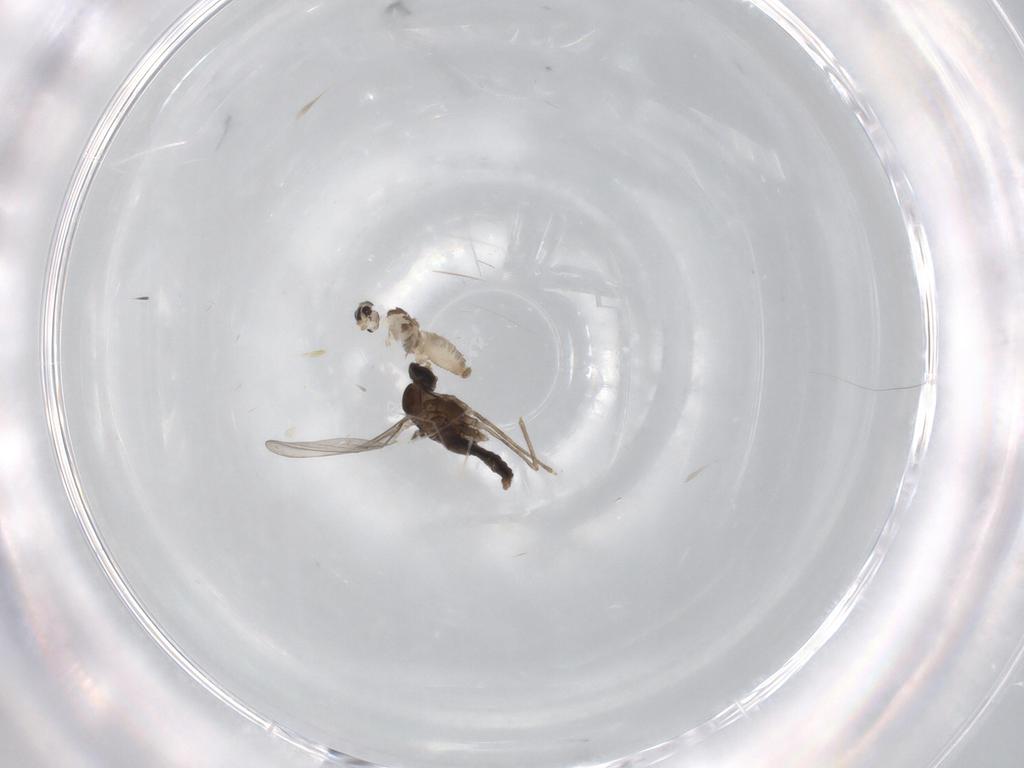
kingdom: Animalia
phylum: Arthropoda
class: Insecta
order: Diptera
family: Cecidomyiidae
